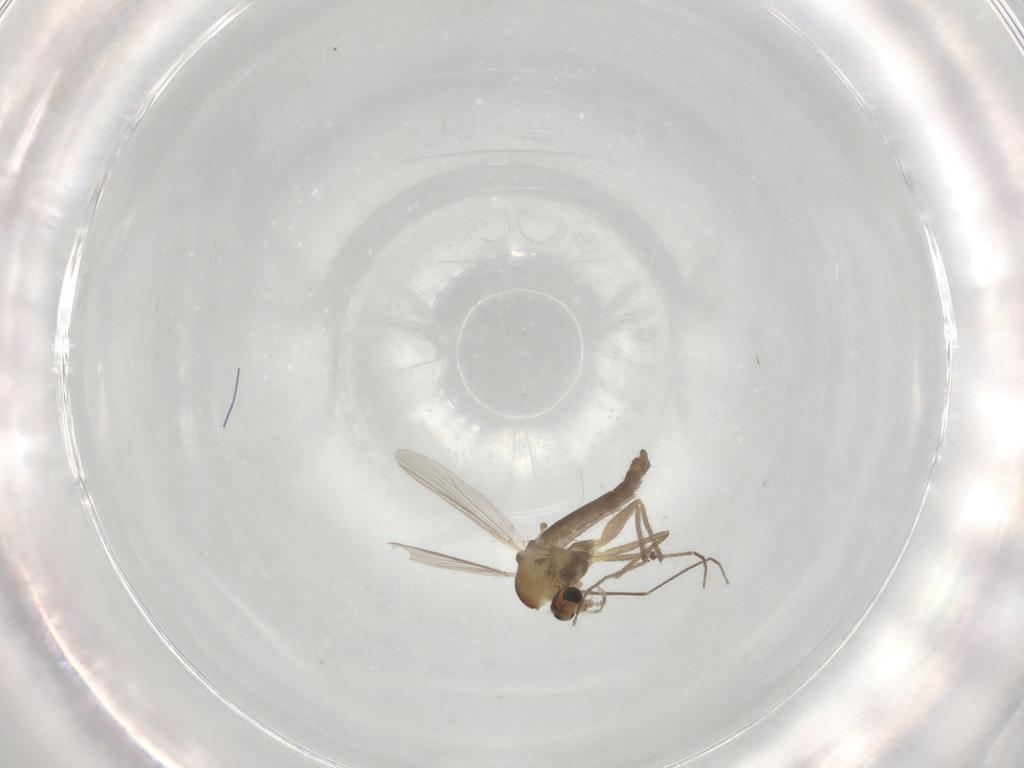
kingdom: Animalia
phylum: Arthropoda
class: Insecta
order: Diptera
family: Chironomidae
